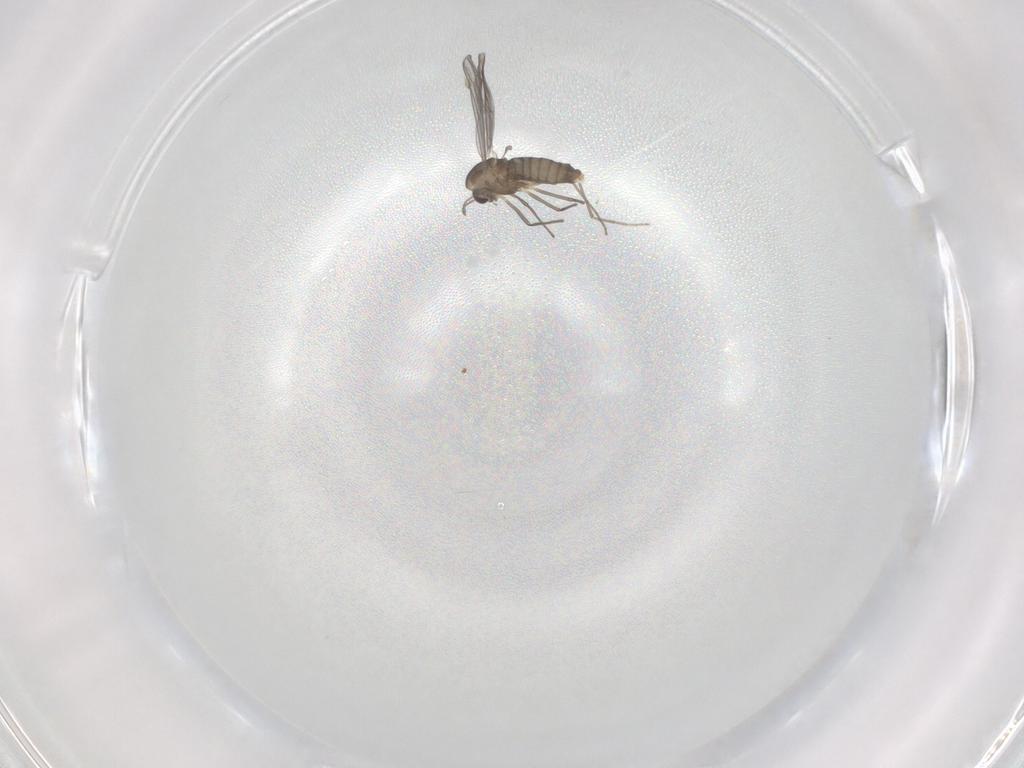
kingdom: Animalia
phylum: Arthropoda
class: Insecta
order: Diptera
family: Chironomidae
